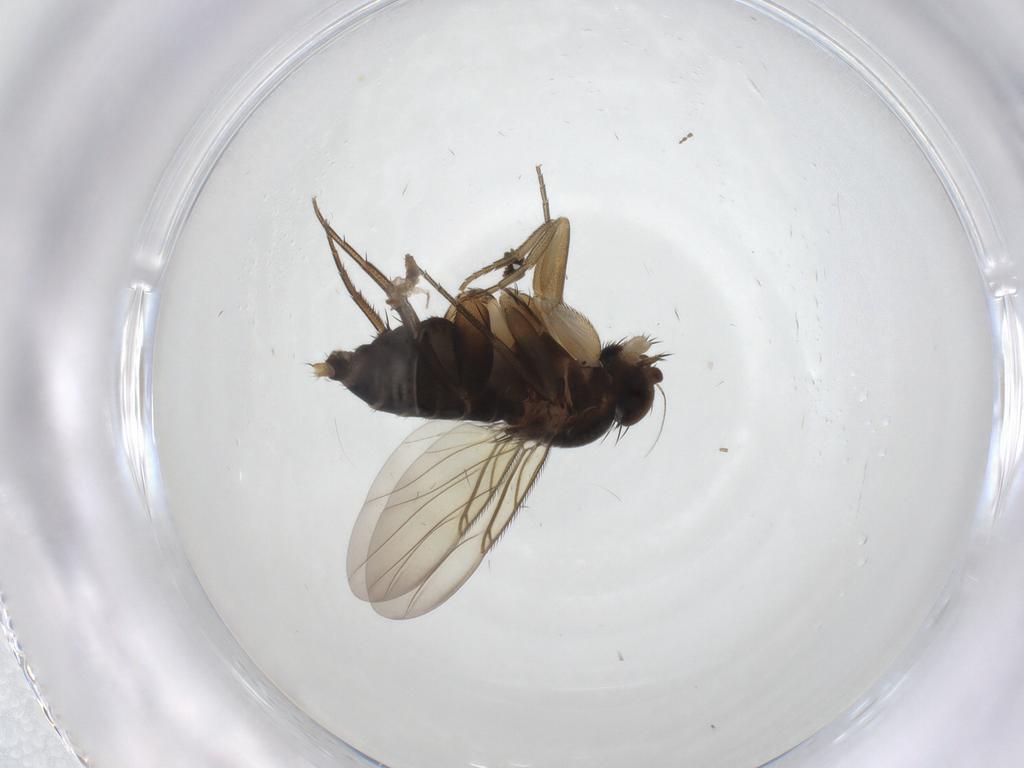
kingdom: Animalia
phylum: Arthropoda
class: Insecta
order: Diptera
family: Phoridae
